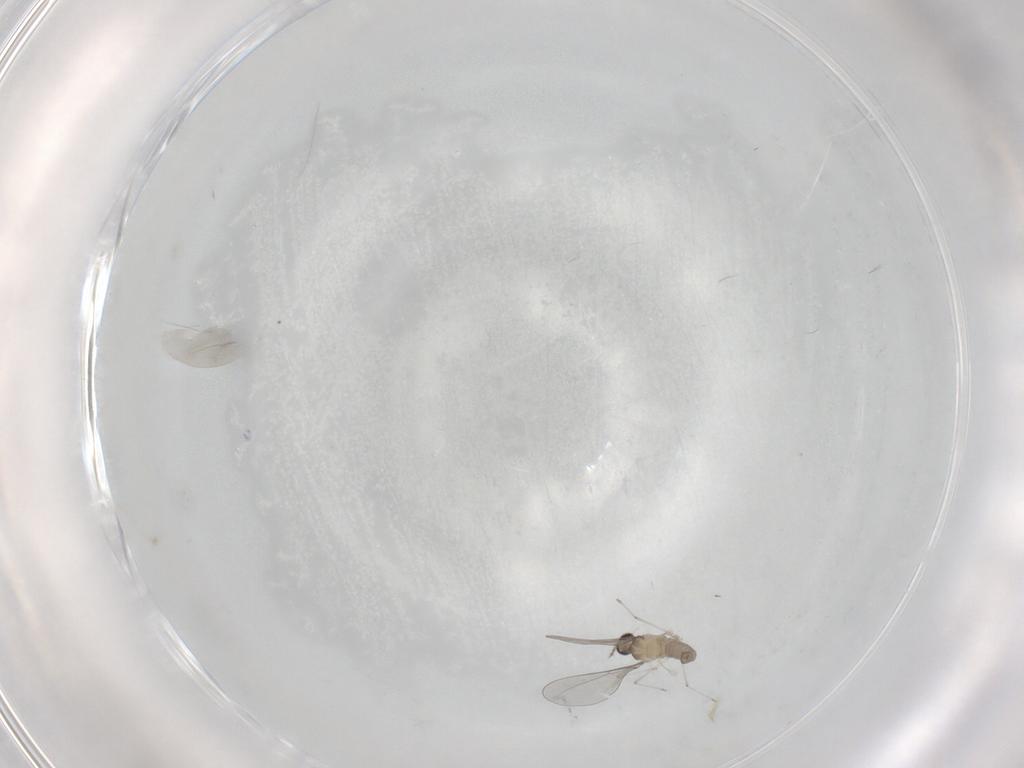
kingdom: Animalia
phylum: Arthropoda
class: Insecta
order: Diptera
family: Cecidomyiidae
